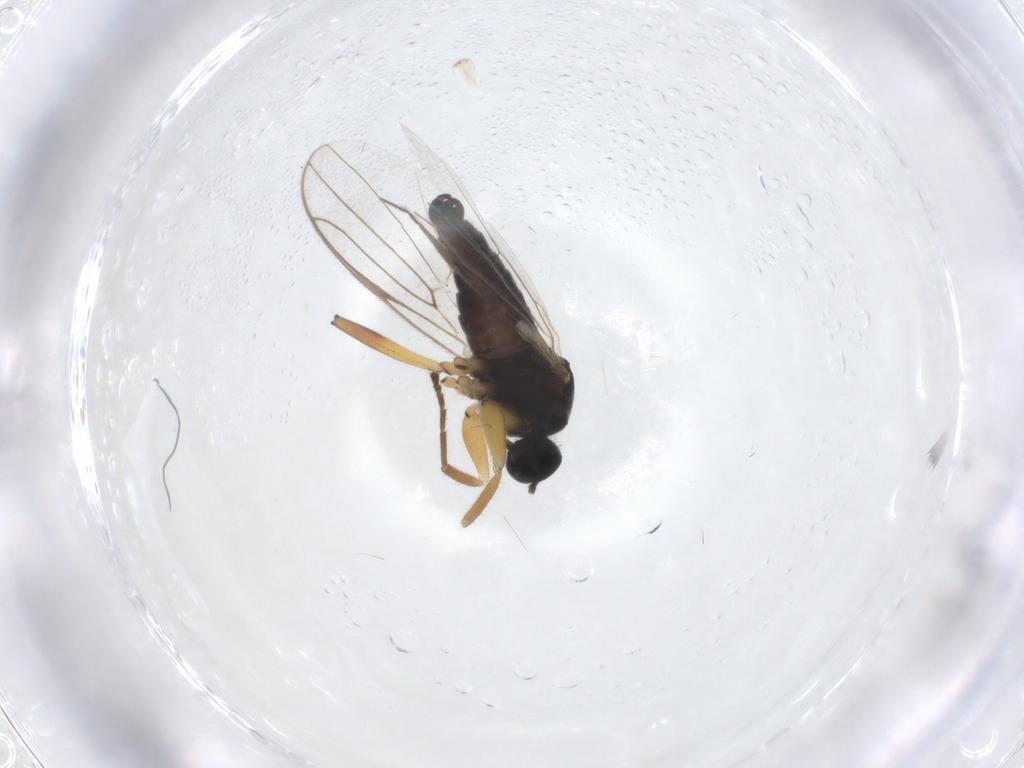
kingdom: Animalia
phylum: Arthropoda
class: Insecta
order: Diptera
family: Hybotidae
